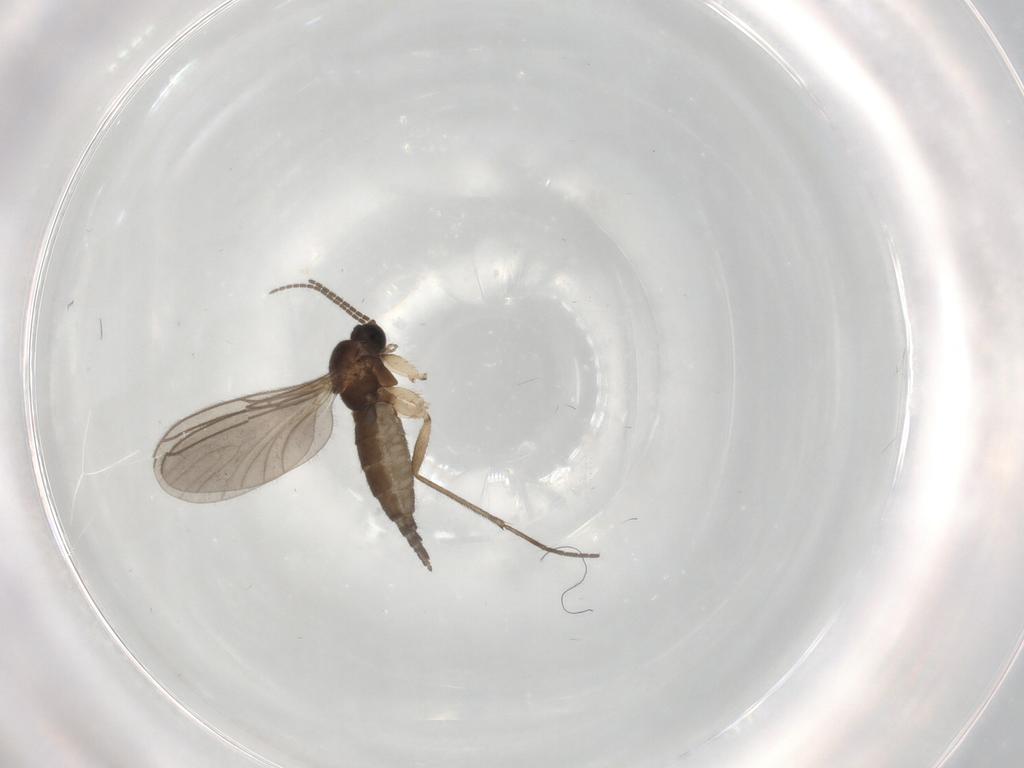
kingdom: Animalia
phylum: Arthropoda
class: Insecta
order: Diptera
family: Sciaridae
